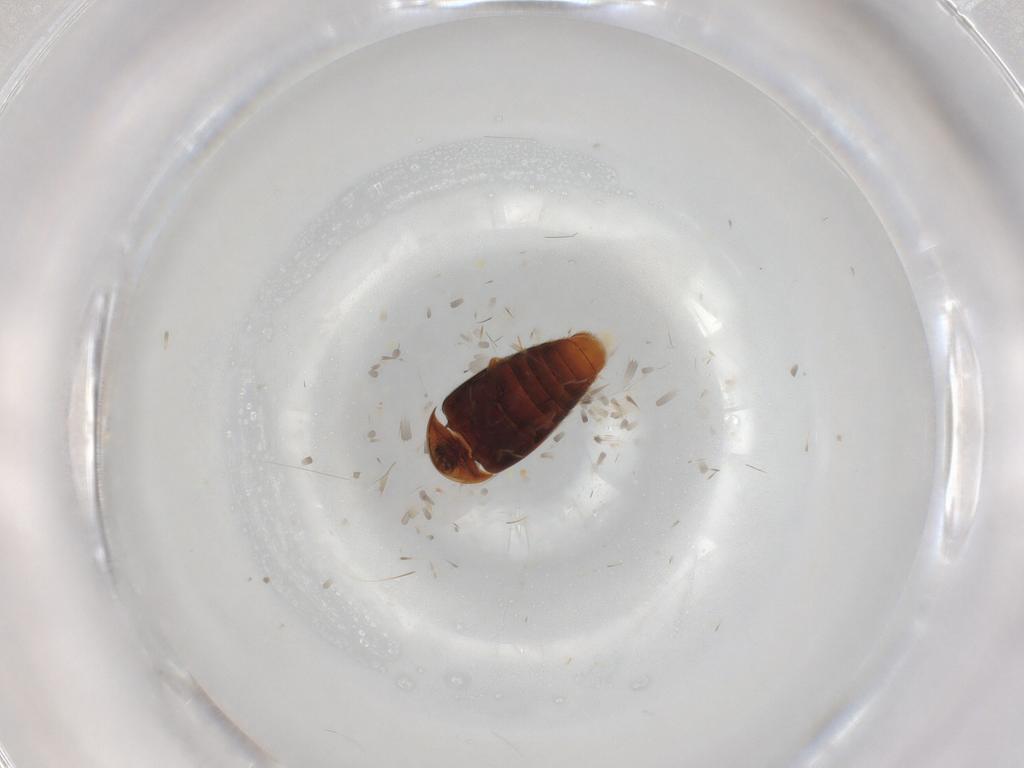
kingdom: Animalia
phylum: Arthropoda
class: Insecta
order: Coleoptera
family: Corylophidae
